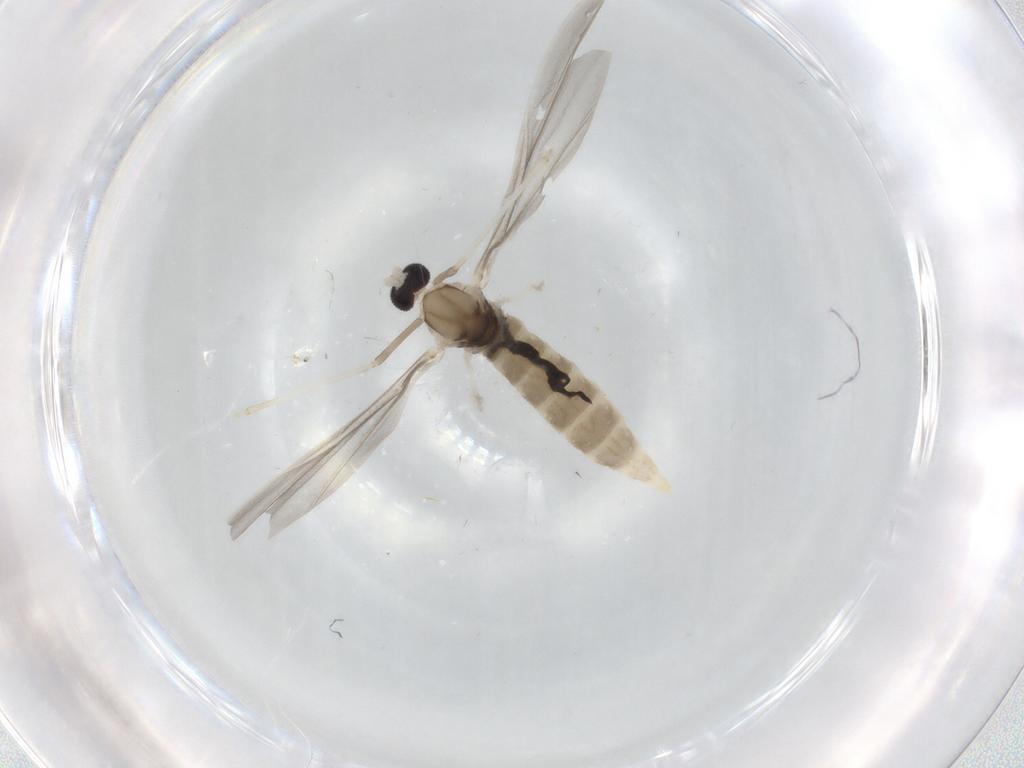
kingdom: Animalia
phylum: Arthropoda
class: Insecta
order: Diptera
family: Cecidomyiidae
